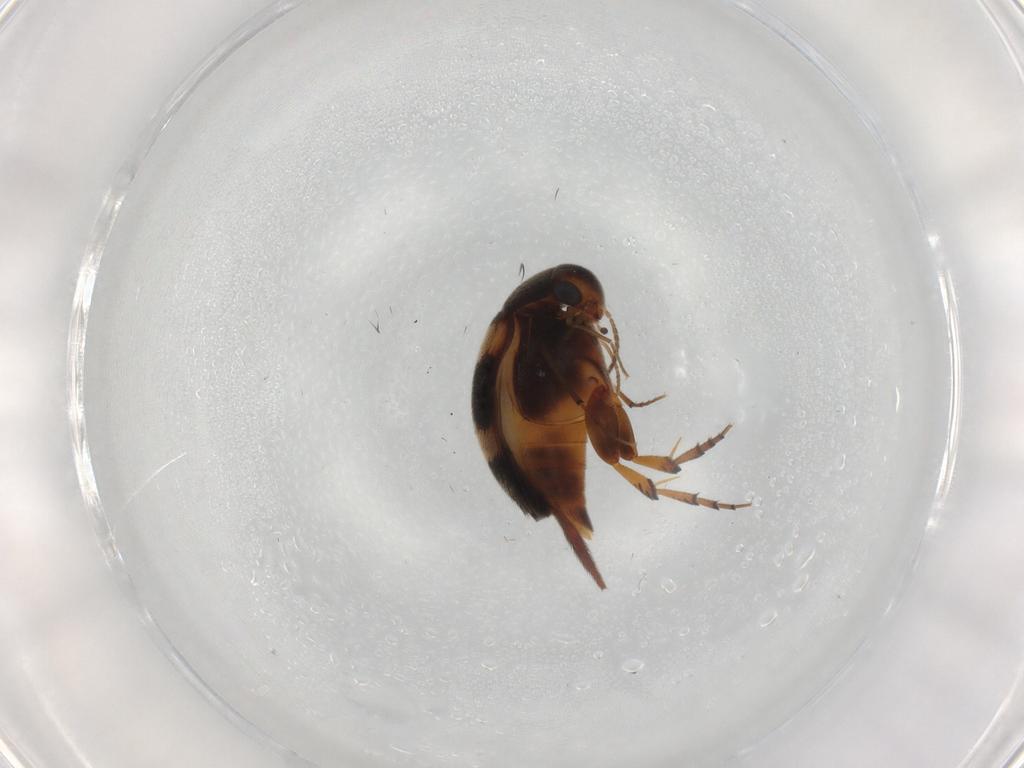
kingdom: Animalia
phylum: Arthropoda
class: Insecta
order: Coleoptera
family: Mordellidae
